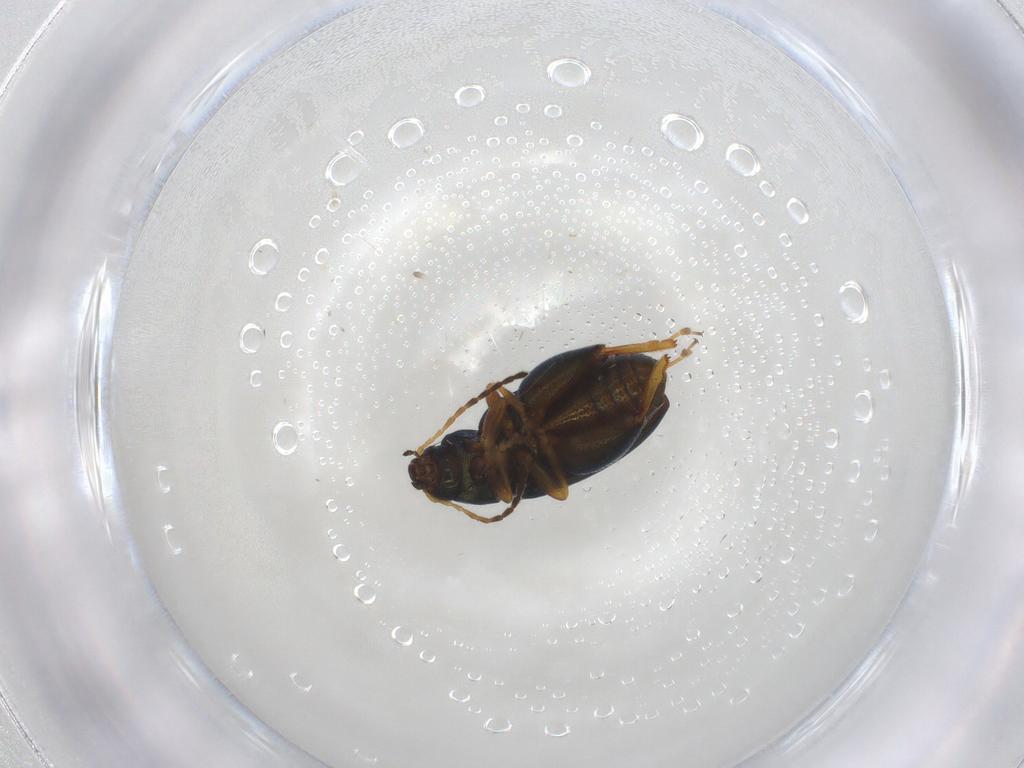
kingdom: Animalia
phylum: Arthropoda
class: Insecta
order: Coleoptera
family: Chrysomelidae
